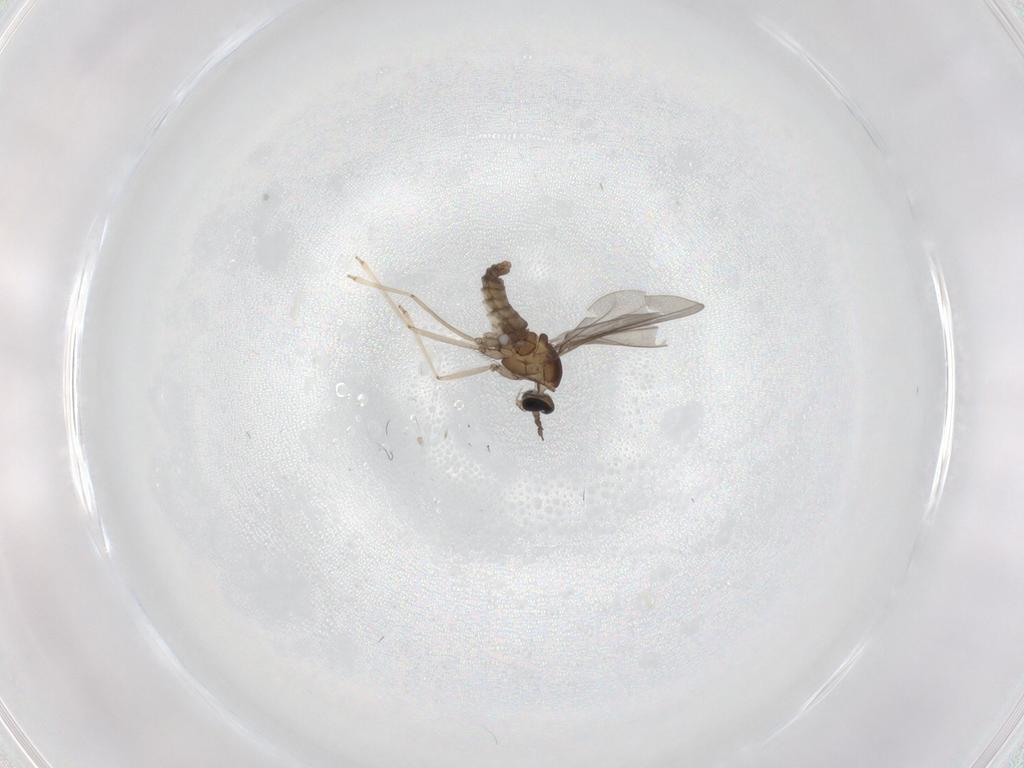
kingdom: Animalia
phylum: Arthropoda
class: Insecta
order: Diptera
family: Cecidomyiidae
